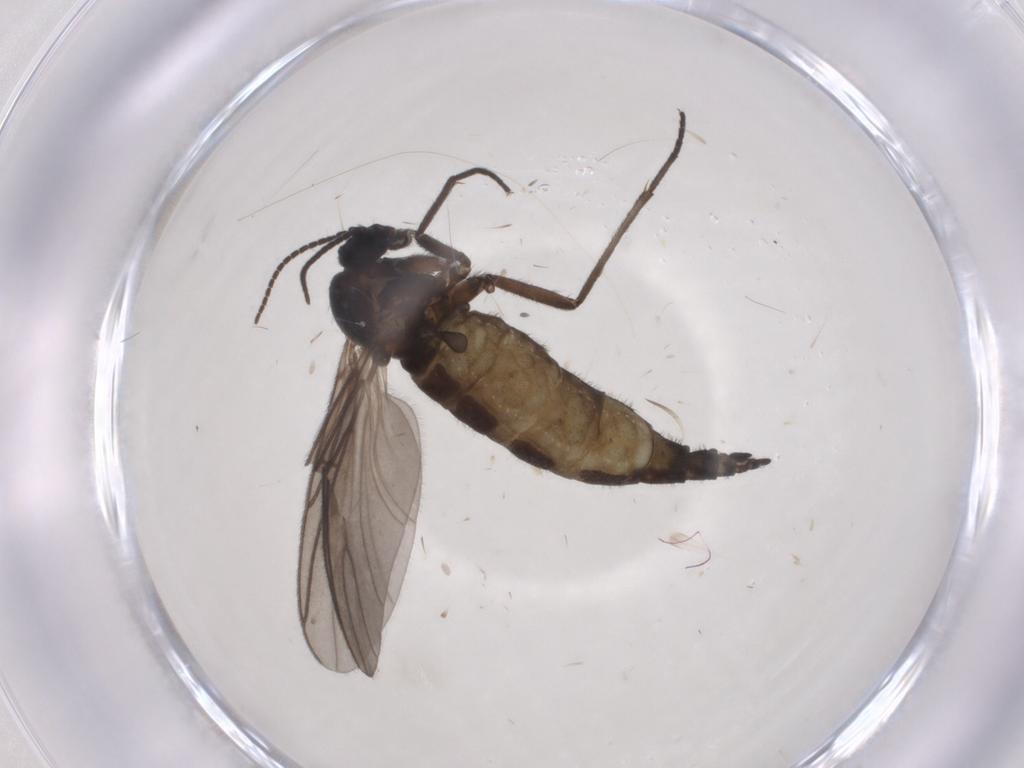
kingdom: Animalia
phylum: Arthropoda
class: Insecta
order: Diptera
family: Sciaridae
